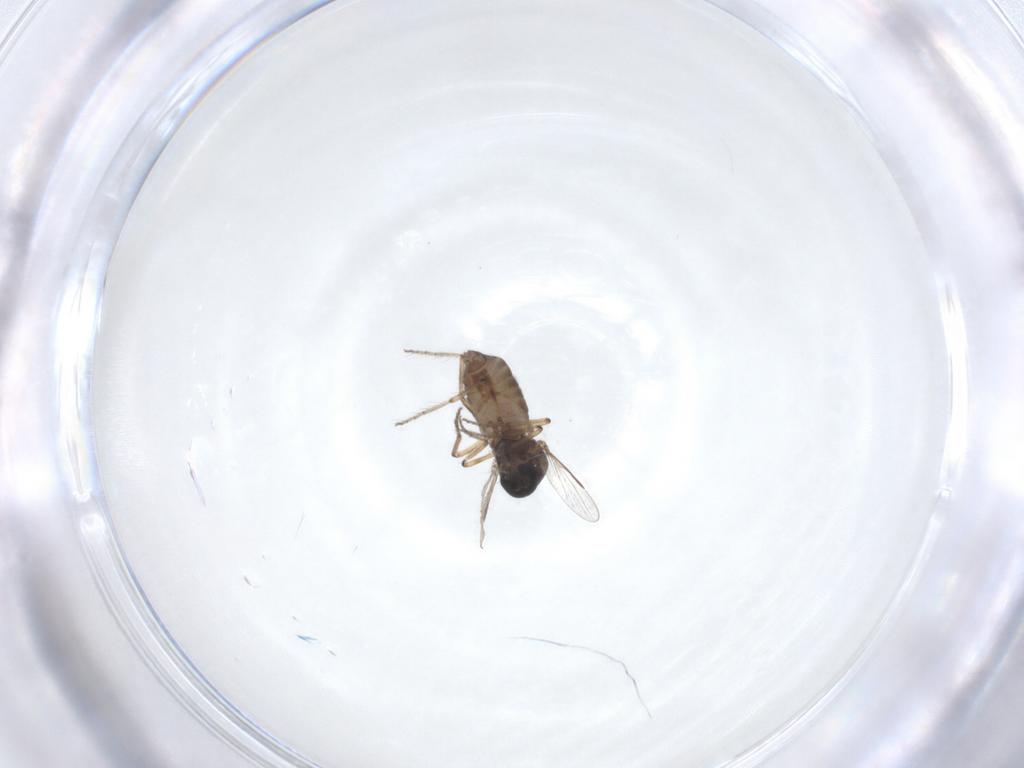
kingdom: Animalia
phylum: Arthropoda
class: Insecta
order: Diptera
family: Ceratopogonidae
